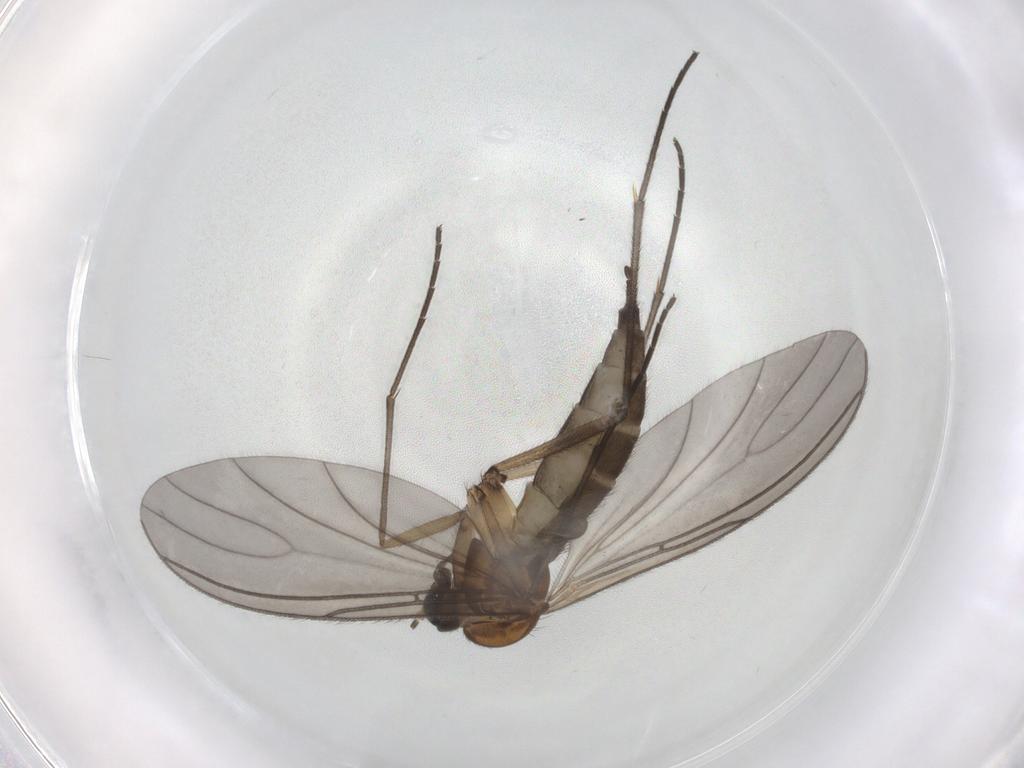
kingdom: Animalia
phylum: Arthropoda
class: Insecta
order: Diptera
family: Sciaridae
